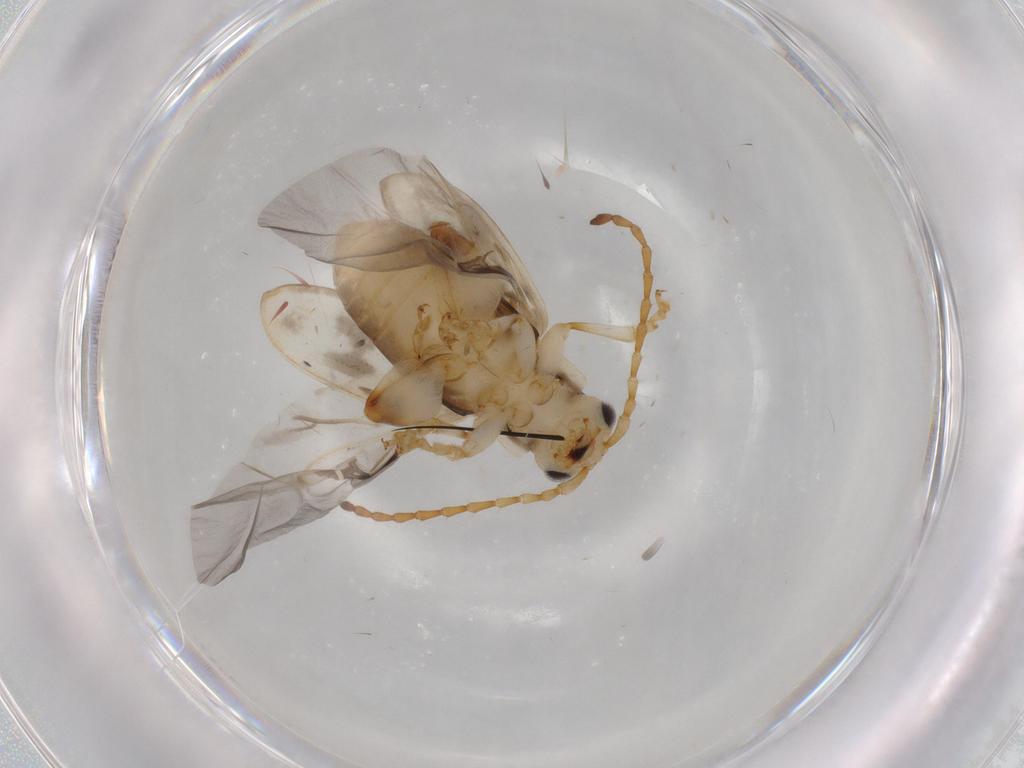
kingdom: Animalia
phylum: Arthropoda
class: Insecta
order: Coleoptera
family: Chrysomelidae
